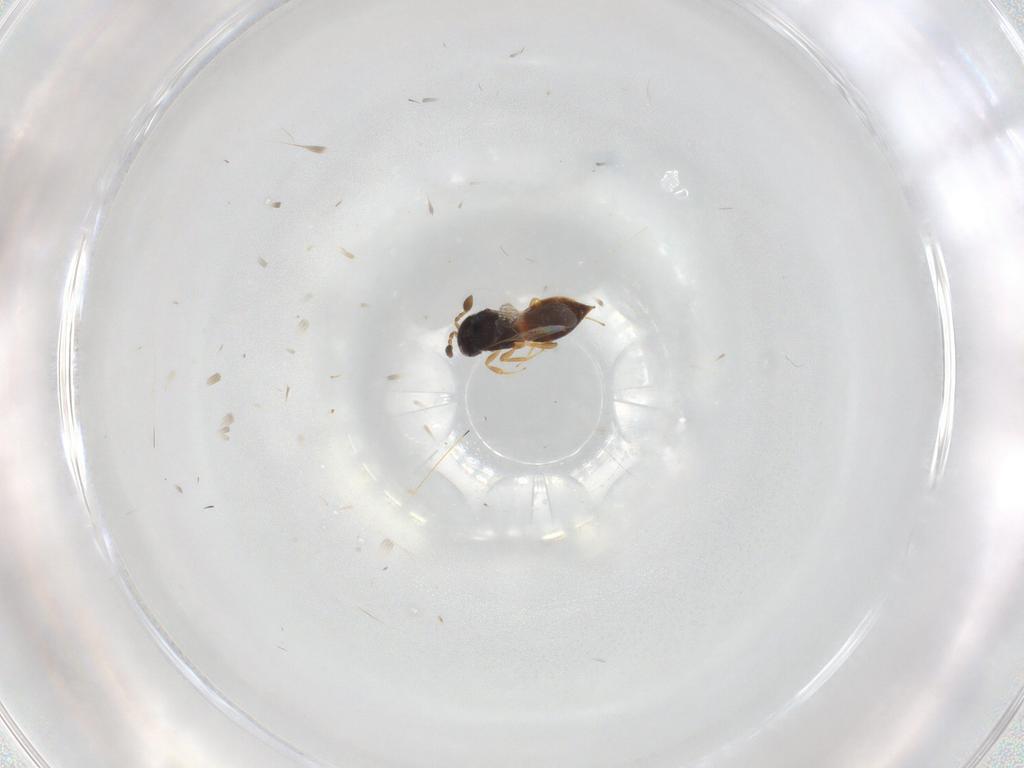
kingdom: Animalia
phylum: Arthropoda
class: Insecta
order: Hymenoptera
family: Scelionidae
